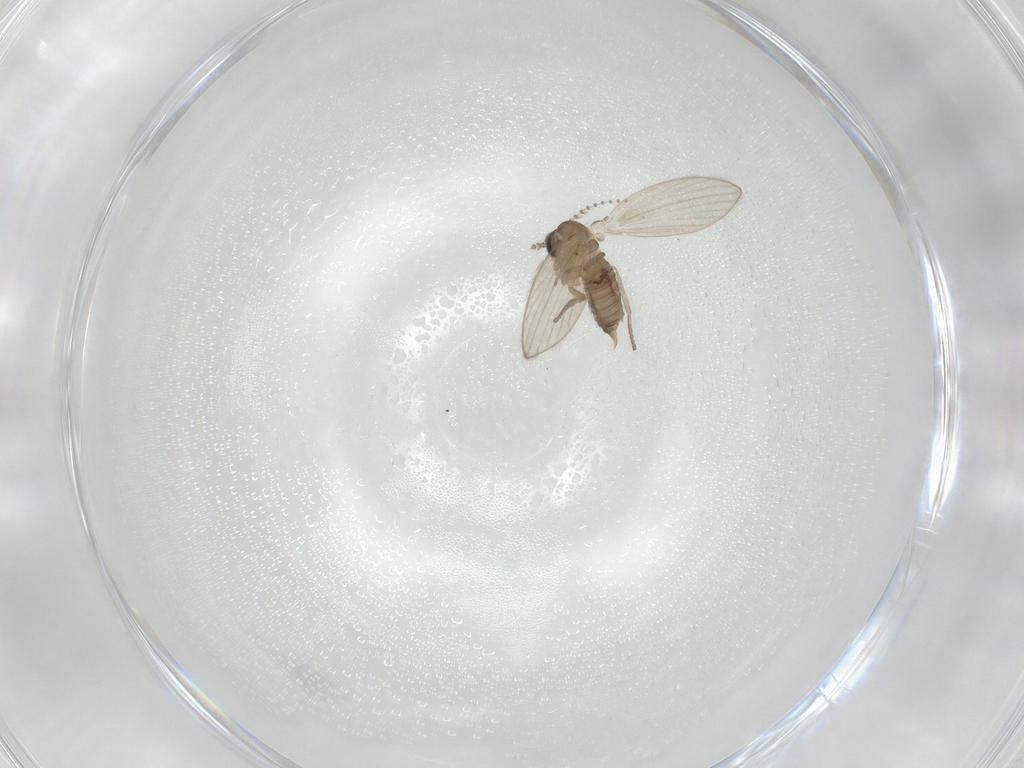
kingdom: Animalia
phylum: Arthropoda
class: Insecta
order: Diptera
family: Psychodidae
